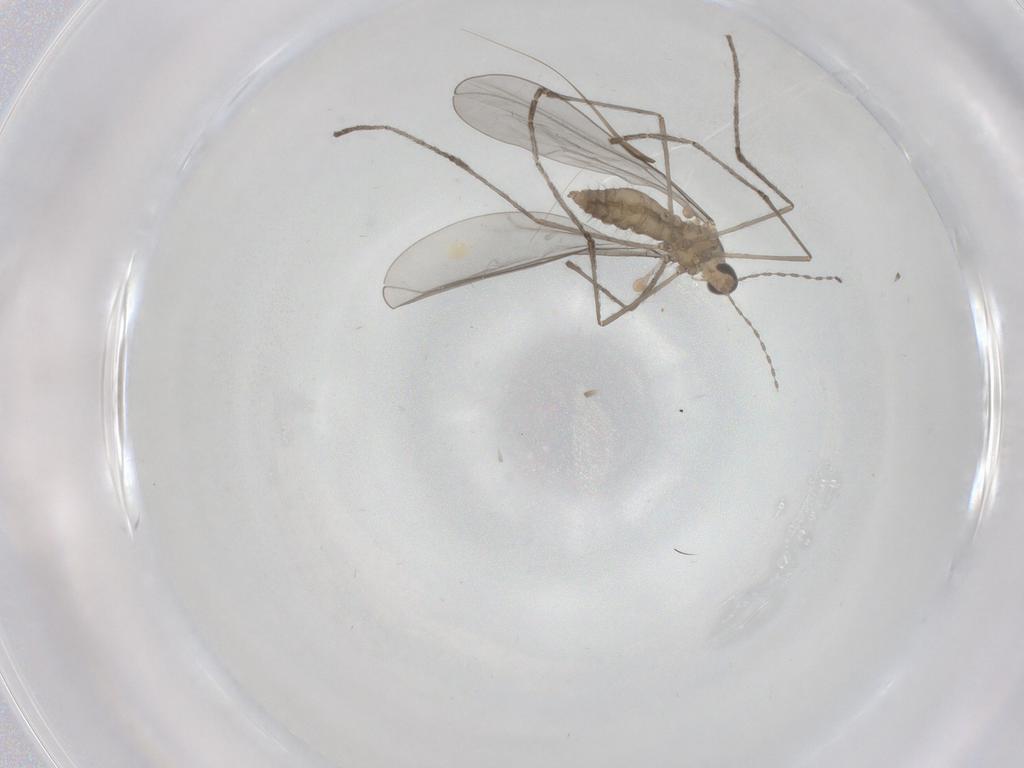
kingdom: Animalia
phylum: Arthropoda
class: Insecta
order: Diptera
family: Cecidomyiidae
